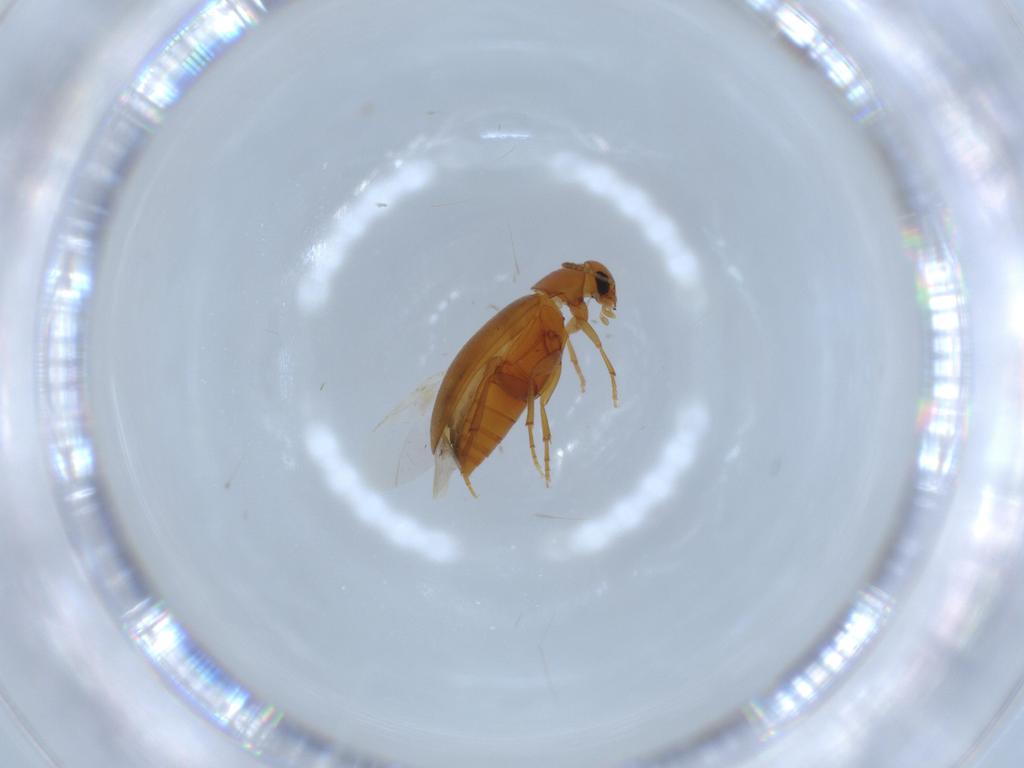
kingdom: Animalia
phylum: Arthropoda
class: Insecta
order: Coleoptera
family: Scraptiidae
